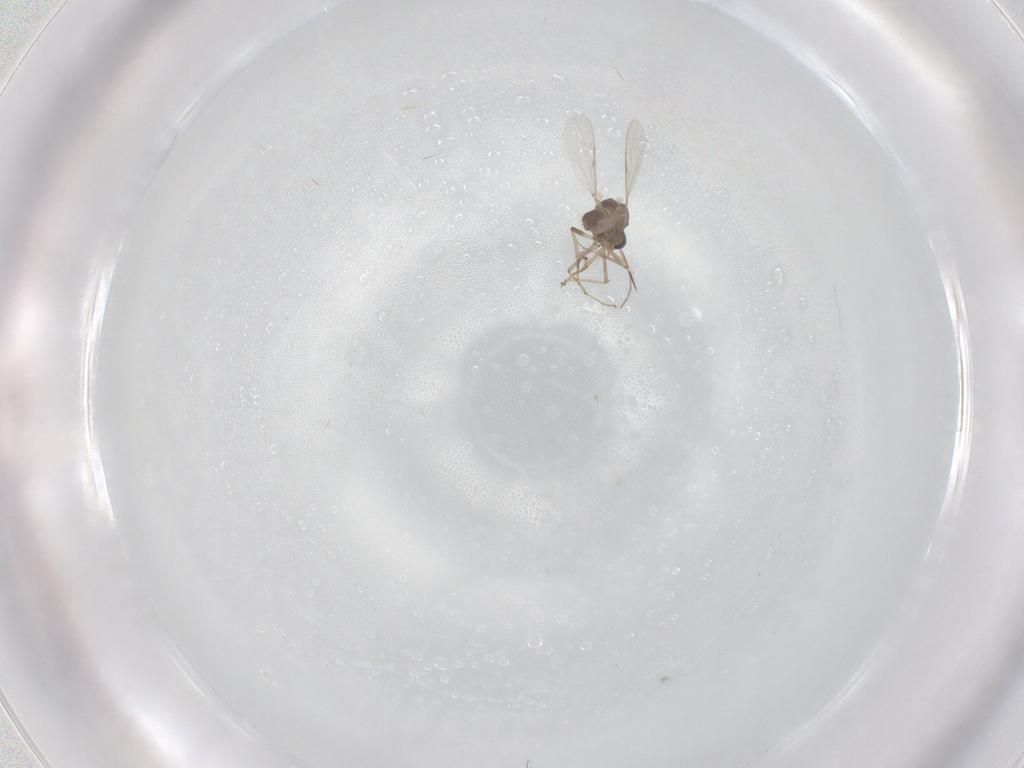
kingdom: Animalia
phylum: Arthropoda
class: Insecta
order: Diptera
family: Ceratopogonidae
